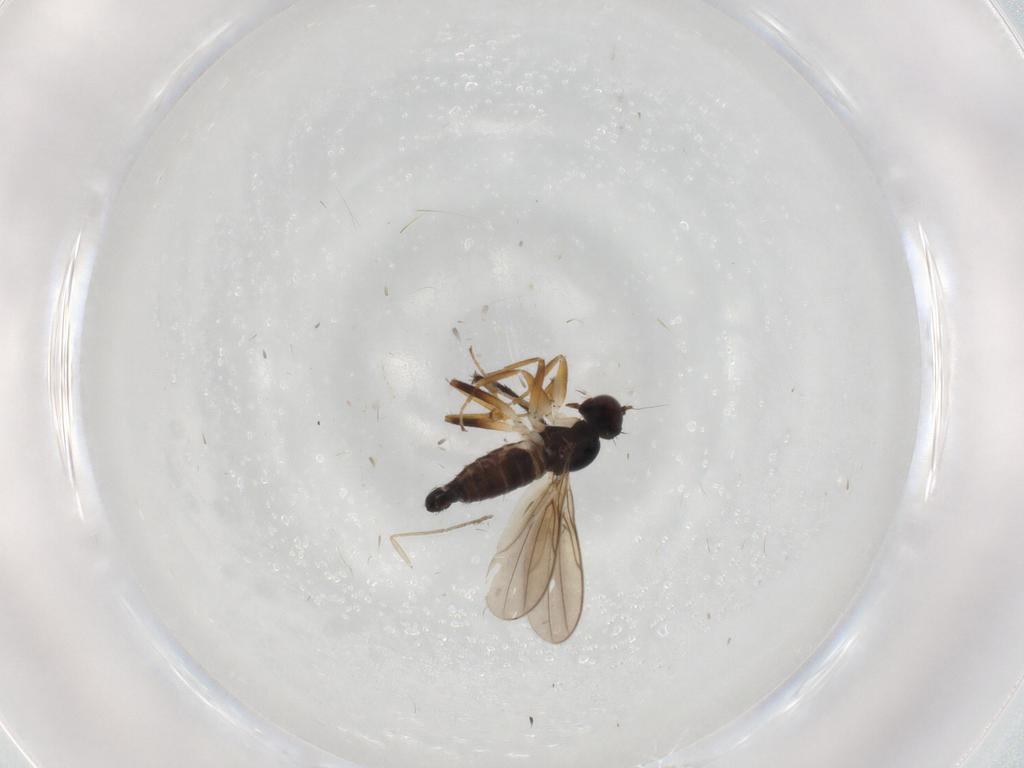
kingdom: Animalia
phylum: Arthropoda
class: Insecta
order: Diptera
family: Hybotidae
